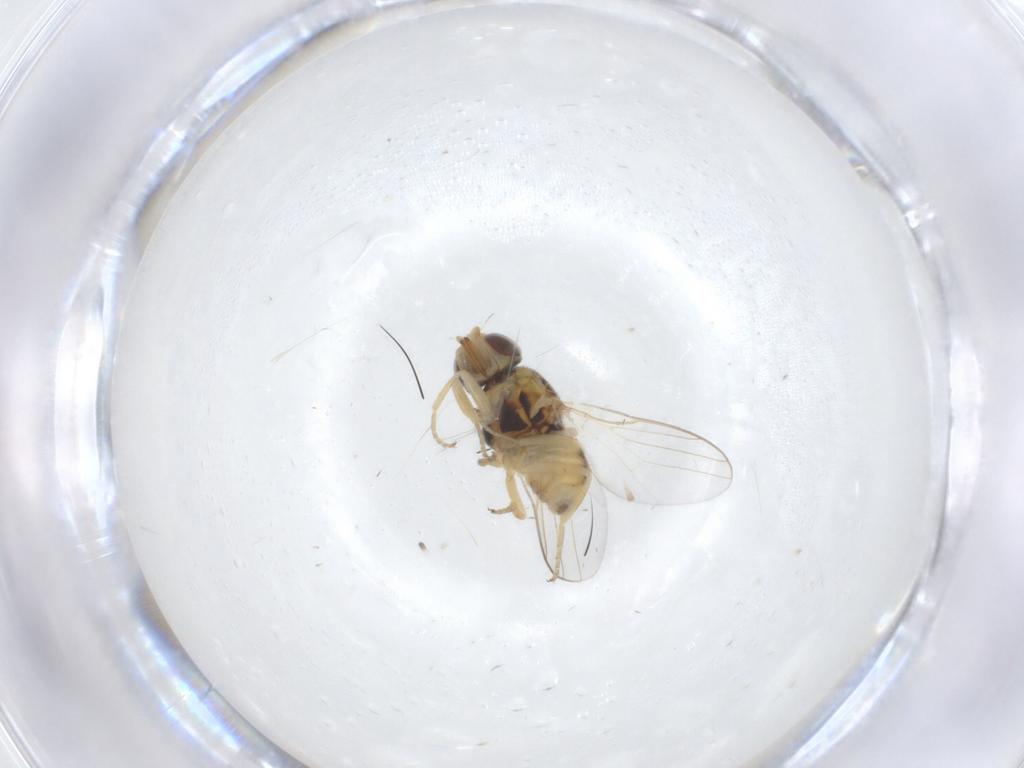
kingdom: Animalia
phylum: Arthropoda
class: Insecta
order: Diptera
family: Chloropidae
